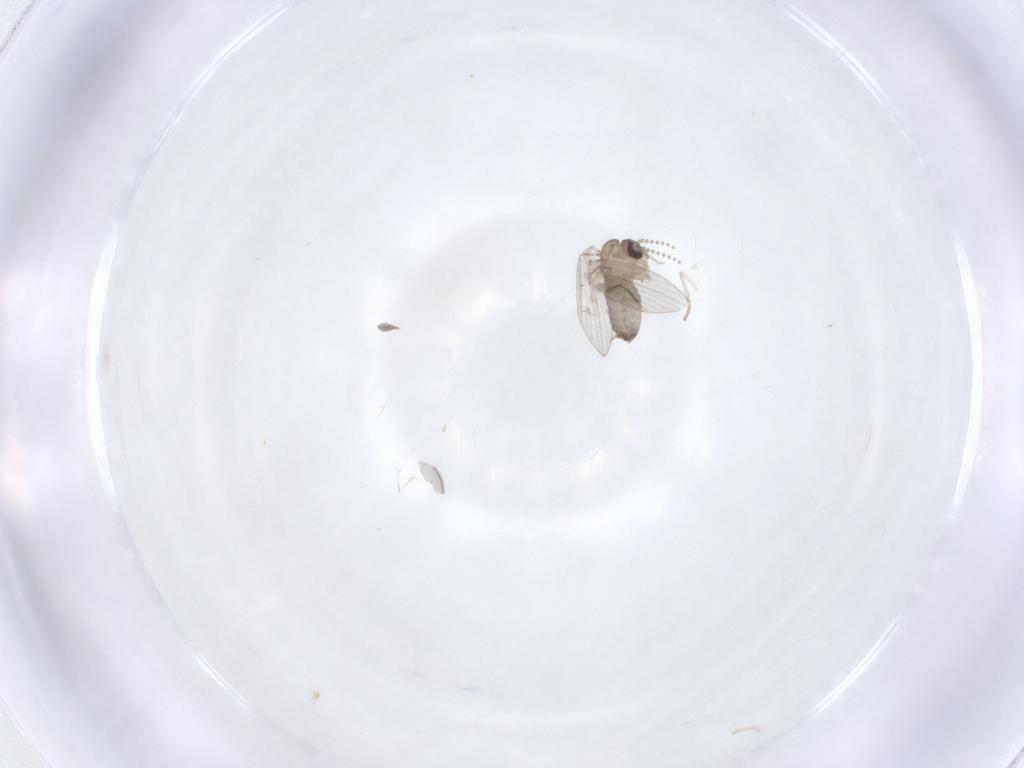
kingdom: Animalia
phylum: Arthropoda
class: Insecta
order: Diptera
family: Psychodidae
